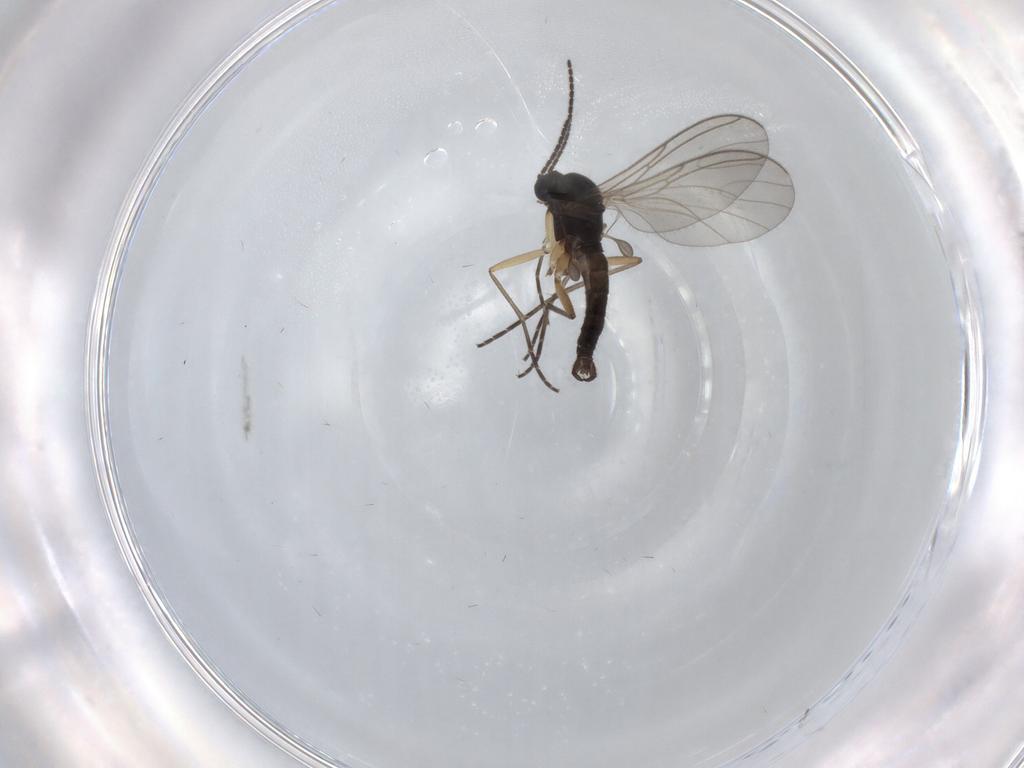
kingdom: Animalia
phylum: Arthropoda
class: Insecta
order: Diptera
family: Sciaridae
